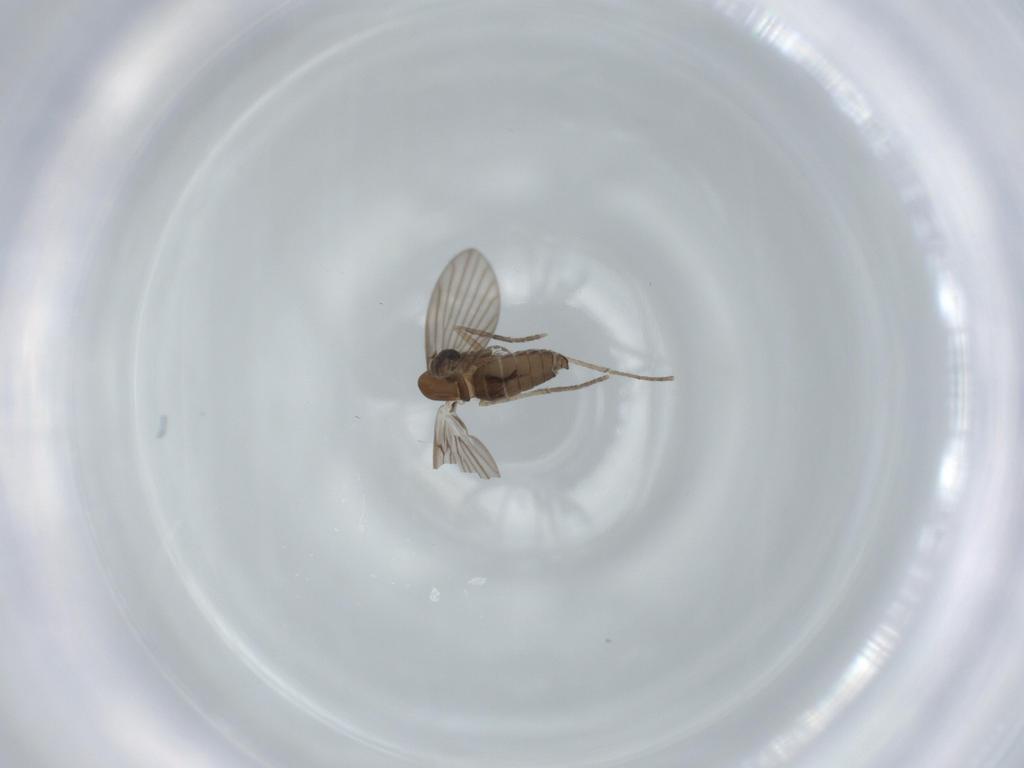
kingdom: Animalia
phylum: Arthropoda
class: Insecta
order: Diptera
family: Psychodidae
